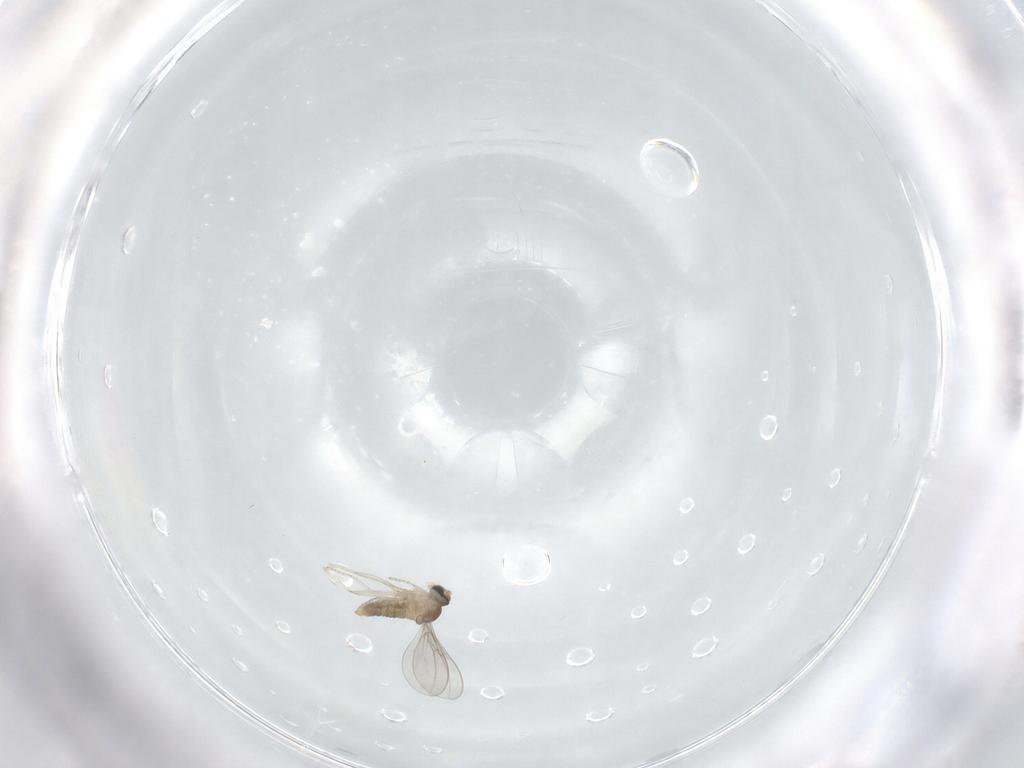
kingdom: Animalia
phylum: Arthropoda
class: Insecta
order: Diptera
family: Cecidomyiidae
